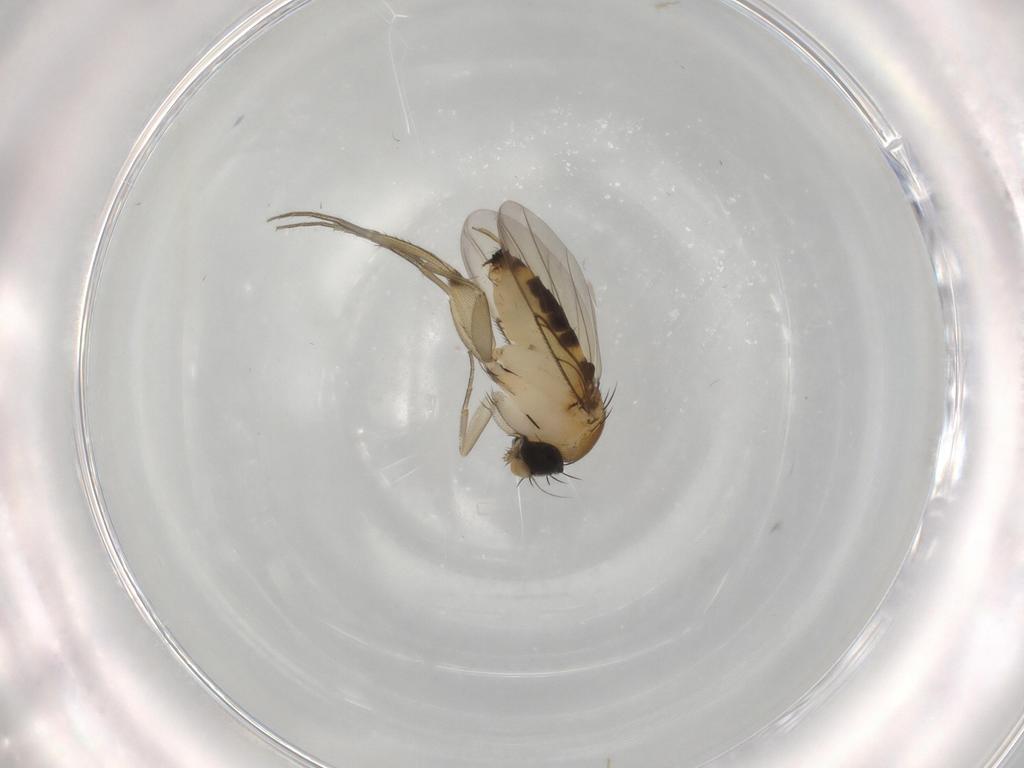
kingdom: Animalia
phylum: Arthropoda
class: Insecta
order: Diptera
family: Phoridae
